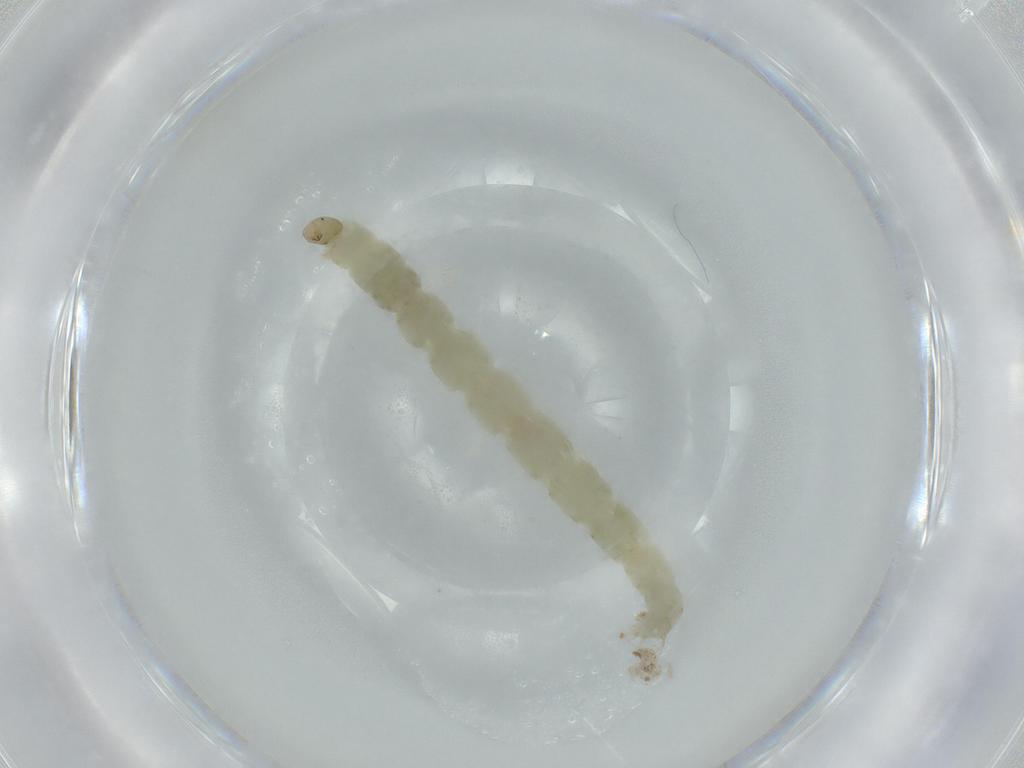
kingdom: Animalia
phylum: Arthropoda
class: Insecta
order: Diptera
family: Chironomidae
